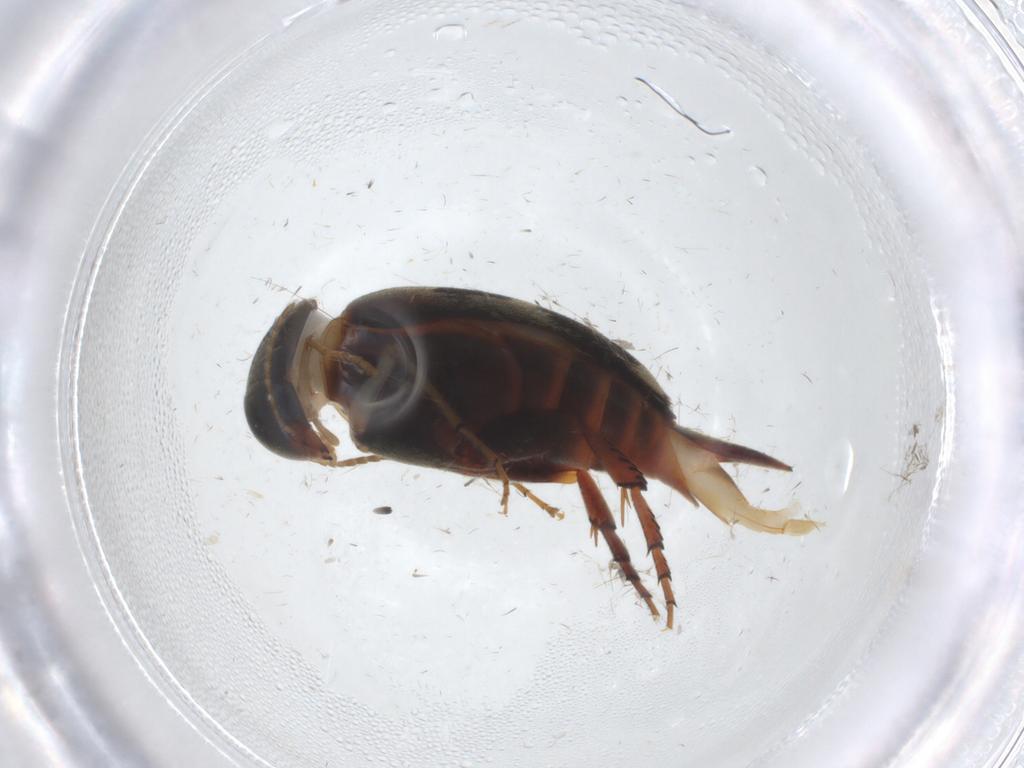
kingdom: Animalia
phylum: Arthropoda
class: Insecta
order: Coleoptera
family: Mordellidae
